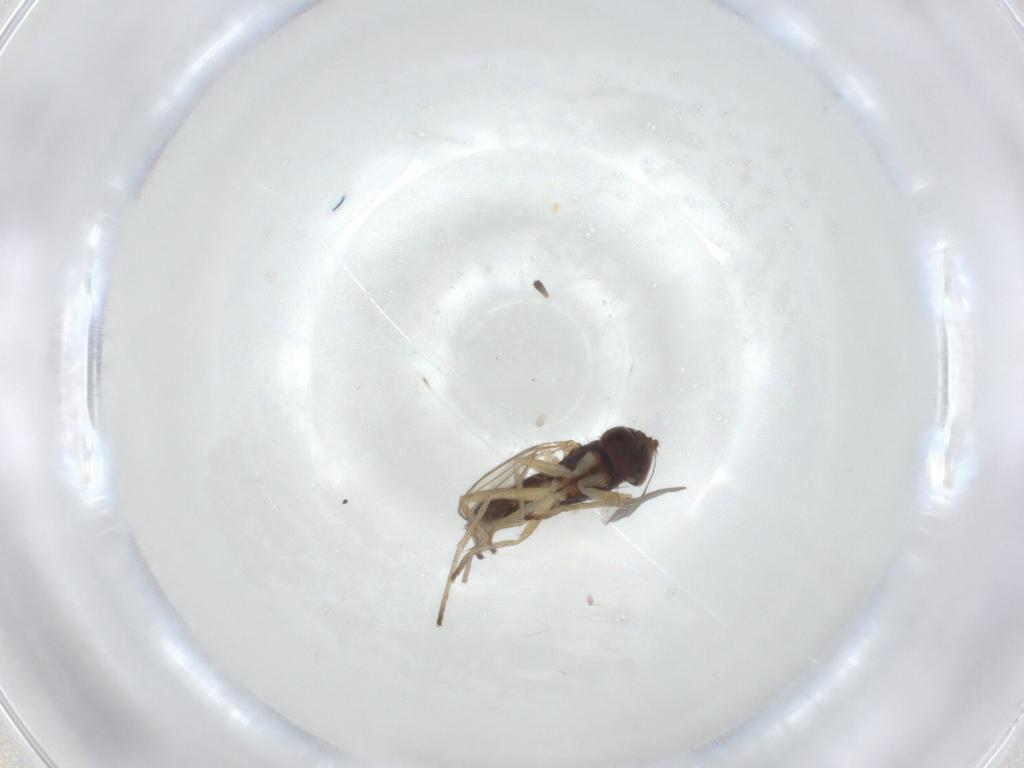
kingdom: Animalia
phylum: Arthropoda
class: Insecta
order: Diptera
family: Dolichopodidae
